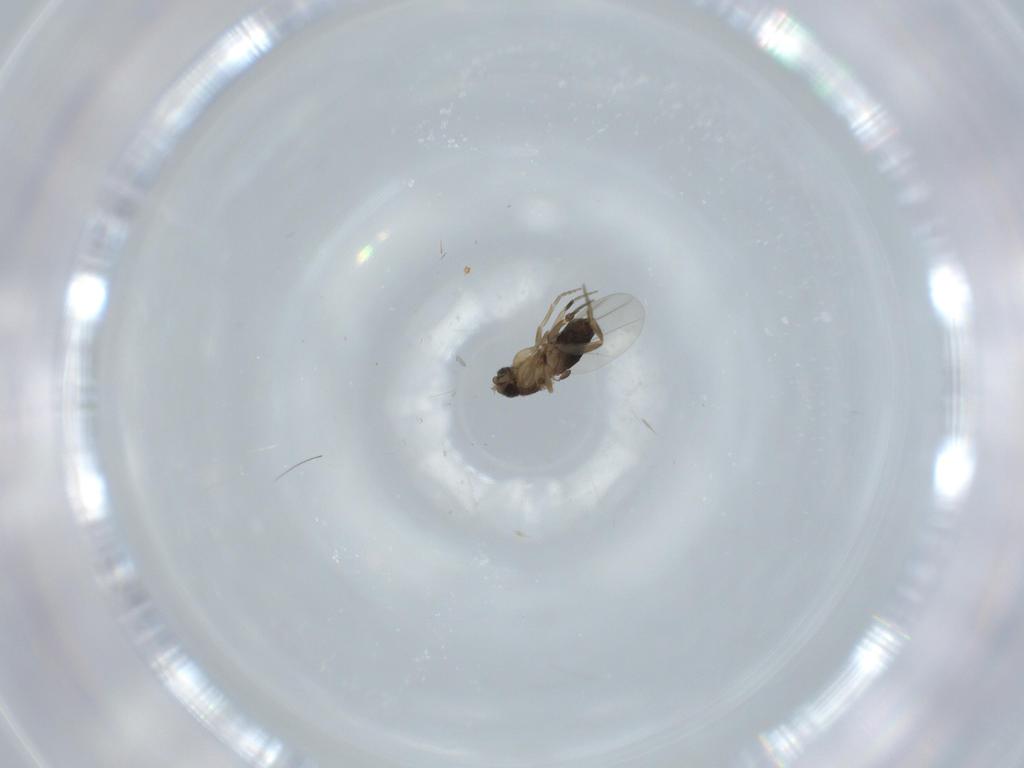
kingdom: Animalia
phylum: Arthropoda
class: Insecta
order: Diptera
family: Phoridae
